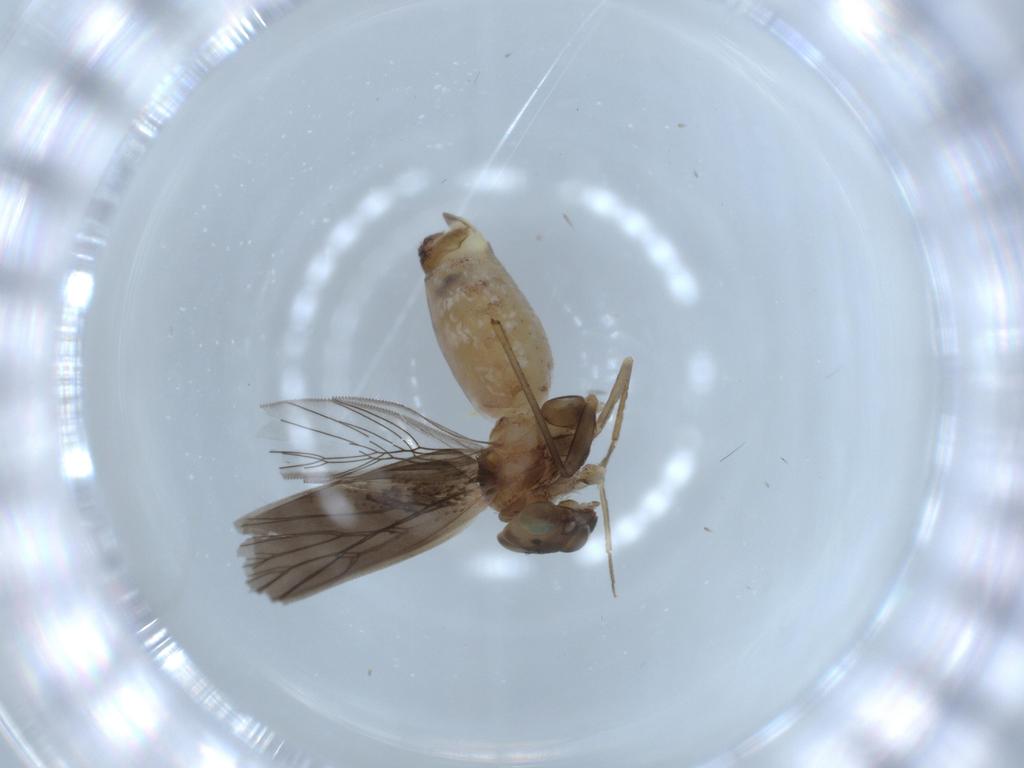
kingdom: Animalia
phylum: Arthropoda
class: Insecta
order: Psocodea
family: Lepidopsocidae
